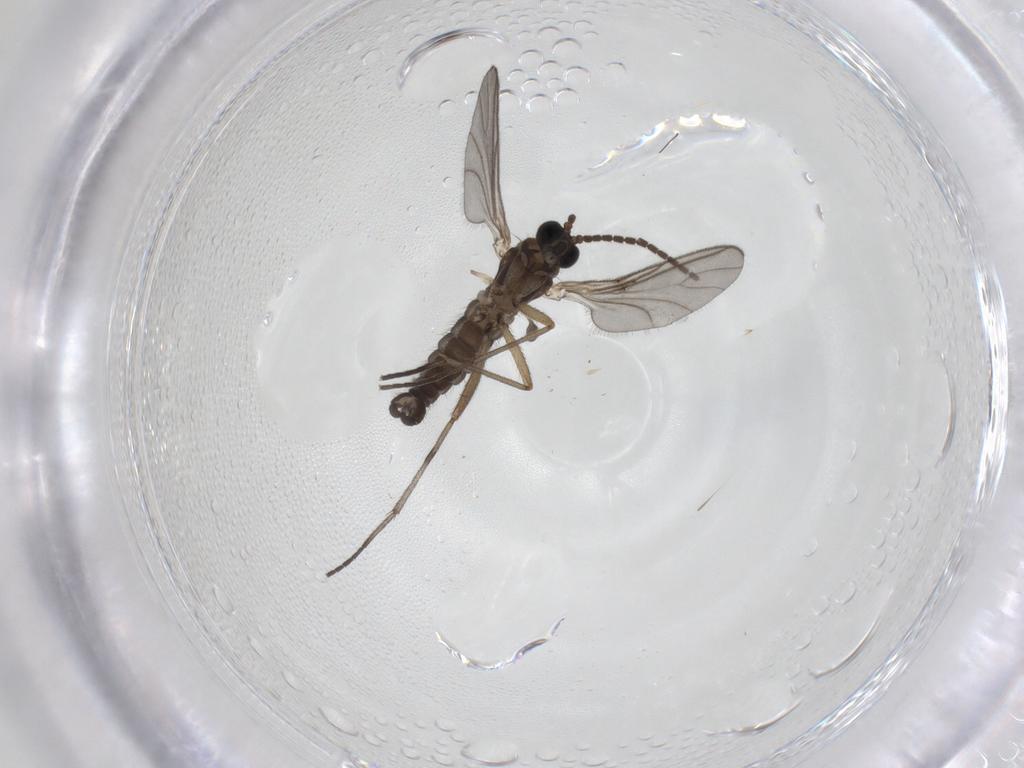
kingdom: Animalia
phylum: Arthropoda
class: Insecta
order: Diptera
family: Sciaridae
